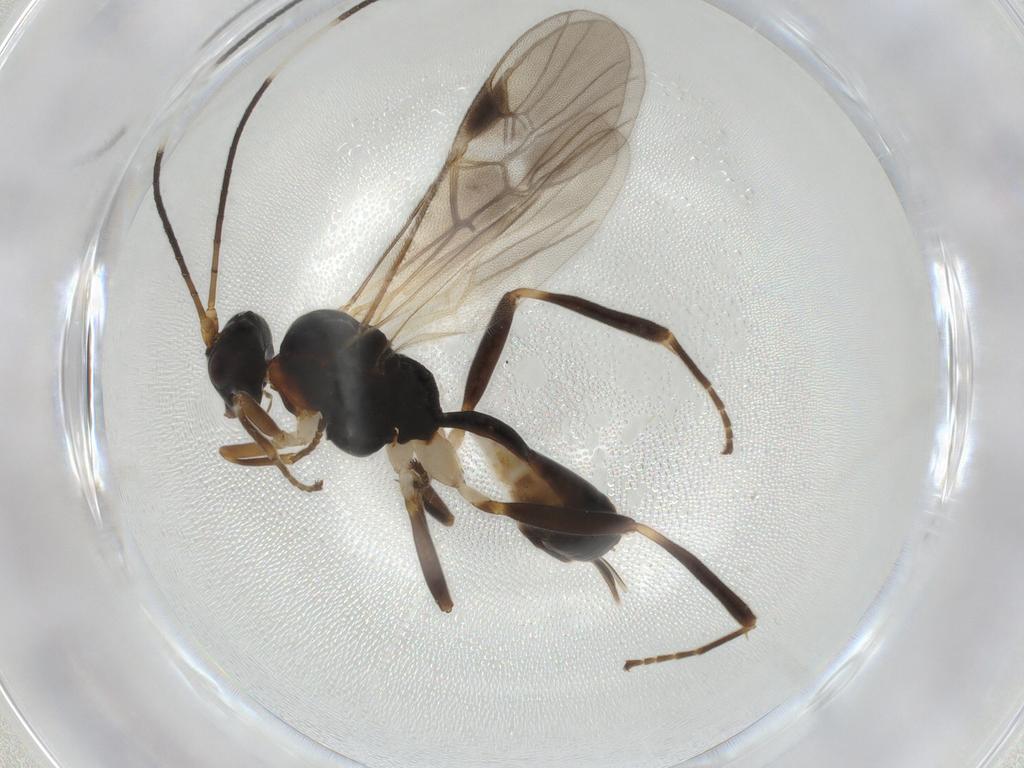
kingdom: Animalia
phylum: Arthropoda
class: Insecta
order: Hymenoptera
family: Braconidae
